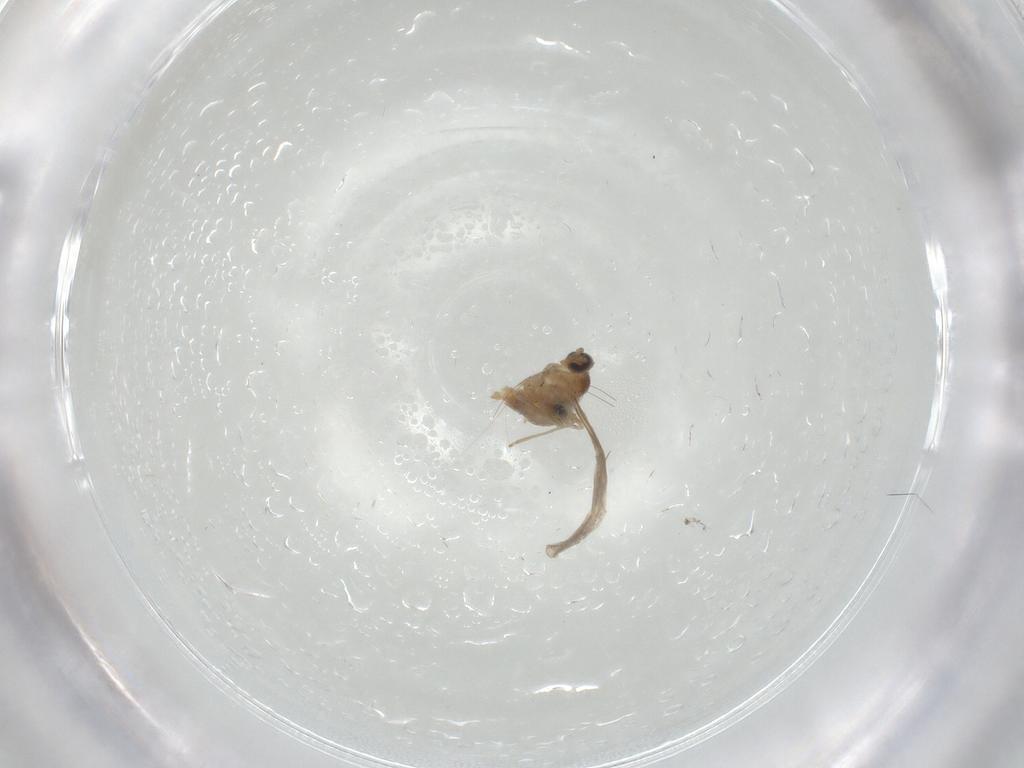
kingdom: Animalia
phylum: Arthropoda
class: Insecta
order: Diptera
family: Cecidomyiidae
